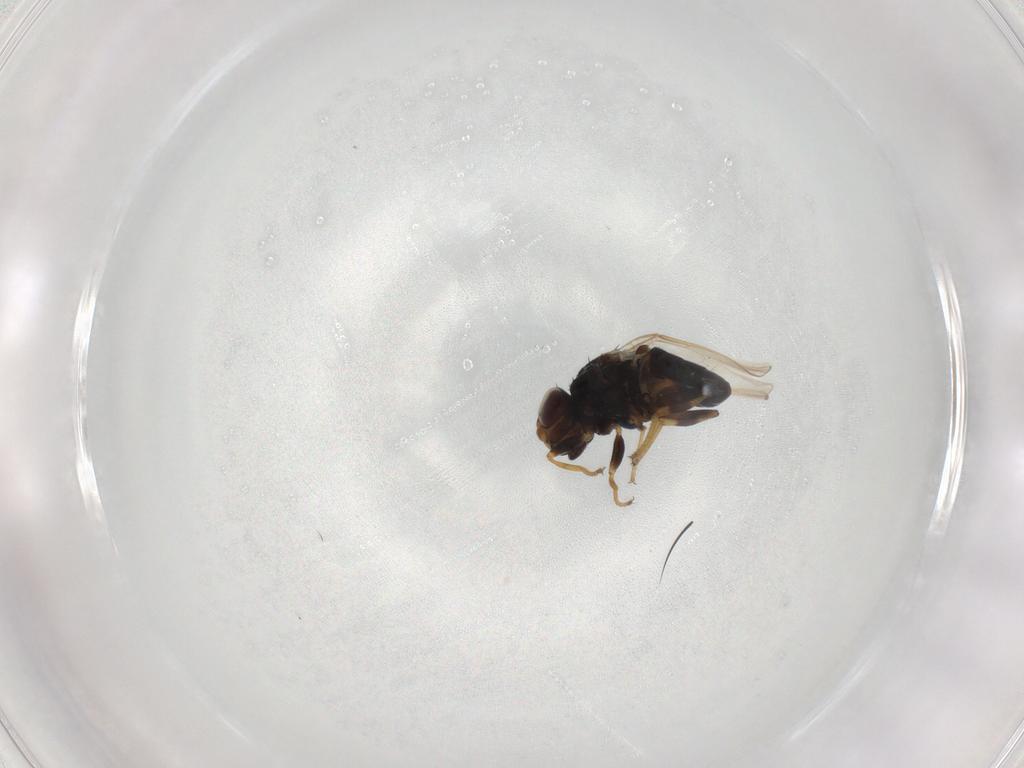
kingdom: Animalia
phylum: Arthropoda
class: Insecta
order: Diptera
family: Chloropidae
